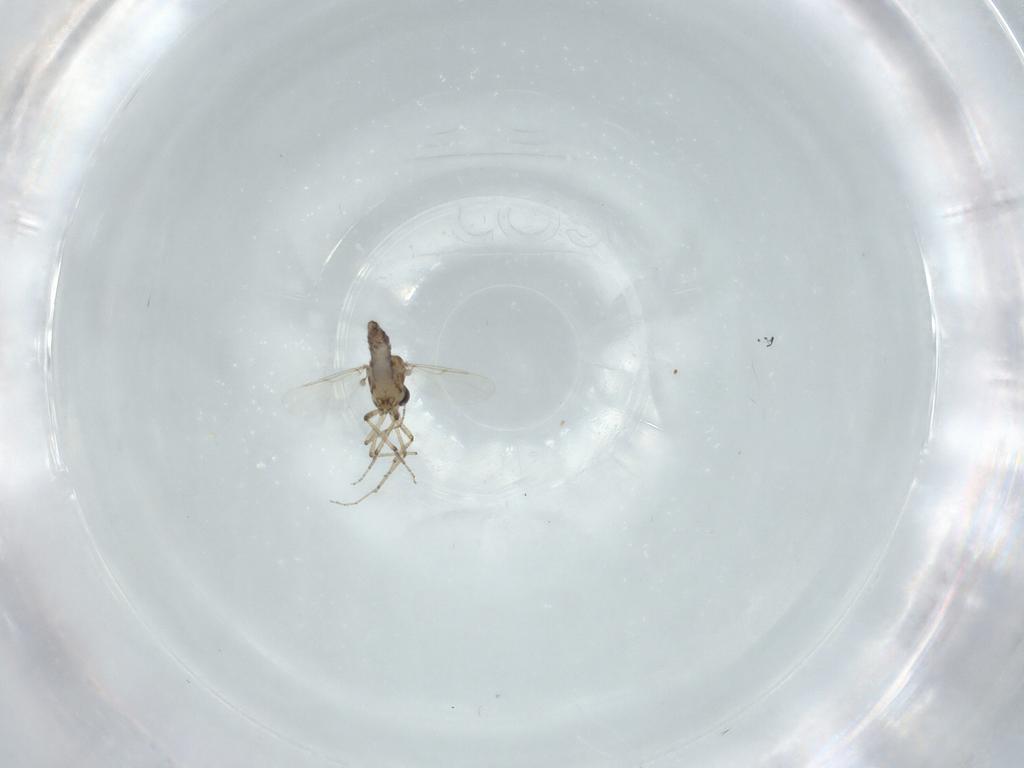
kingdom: Animalia
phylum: Arthropoda
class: Insecta
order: Diptera
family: Ceratopogonidae
